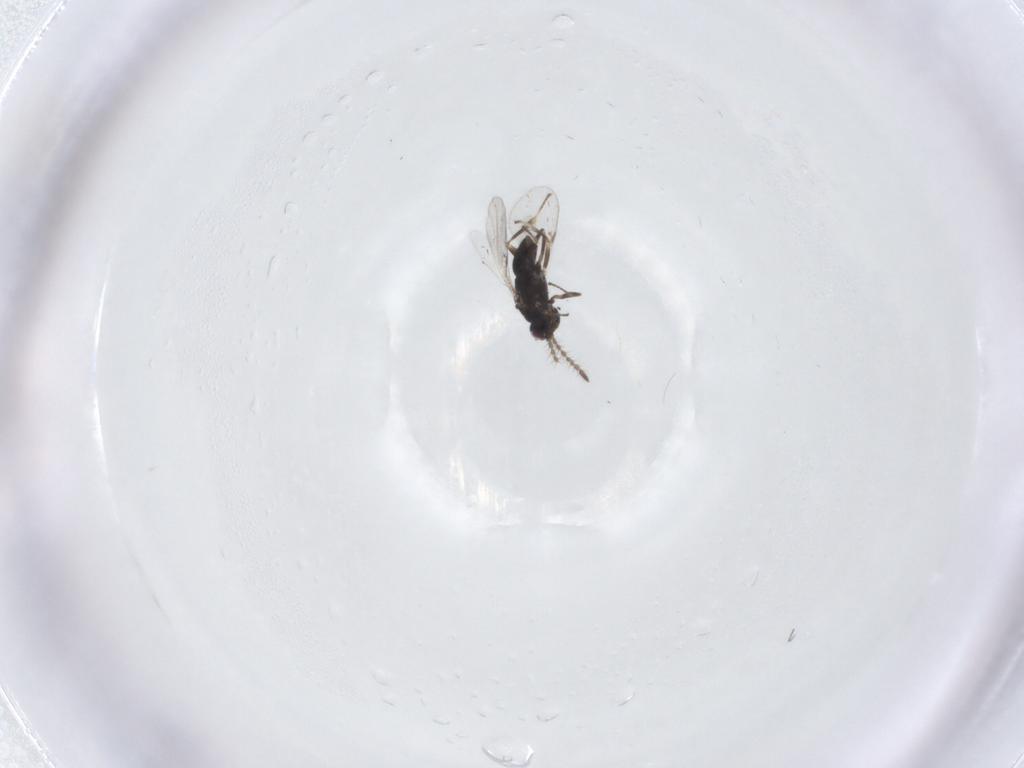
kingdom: Animalia
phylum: Arthropoda
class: Insecta
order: Hymenoptera
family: Encyrtidae
